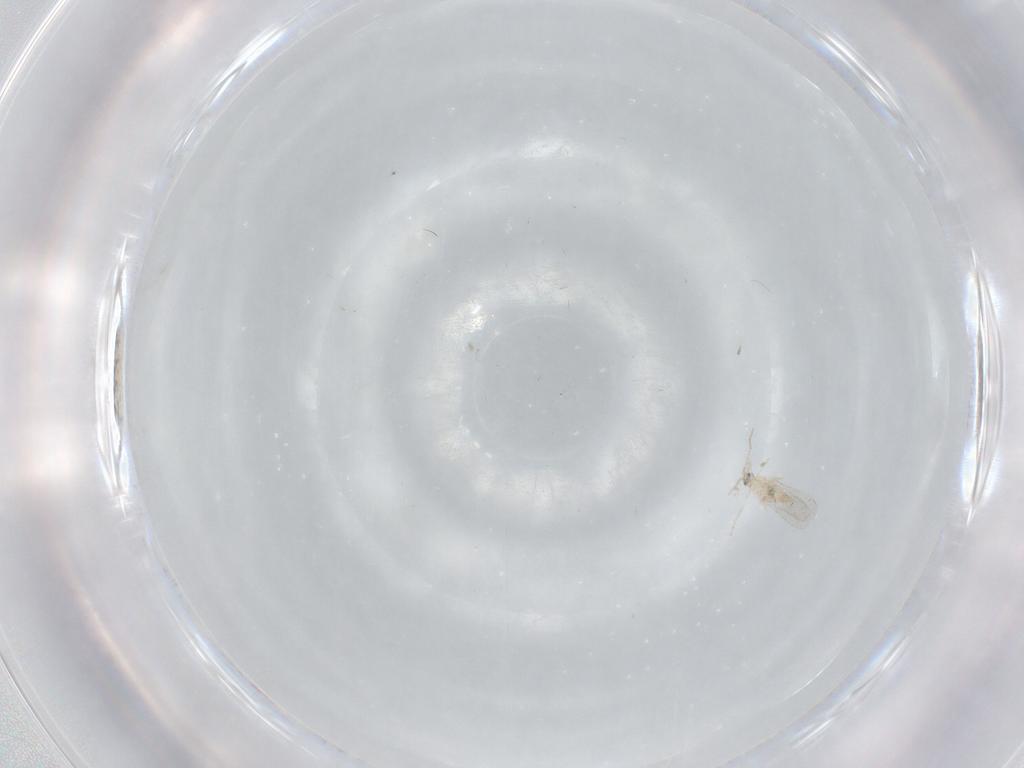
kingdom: Animalia
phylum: Arthropoda
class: Insecta
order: Diptera
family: Cecidomyiidae
